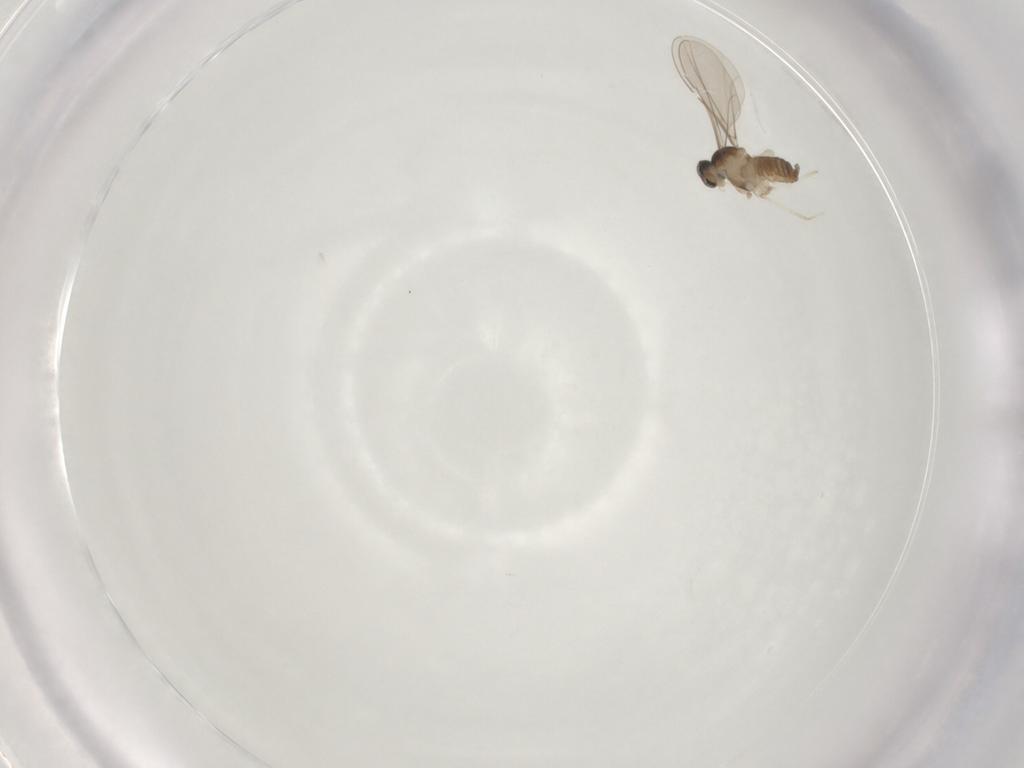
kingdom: Animalia
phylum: Arthropoda
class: Insecta
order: Diptera
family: Cecidomyiidae
